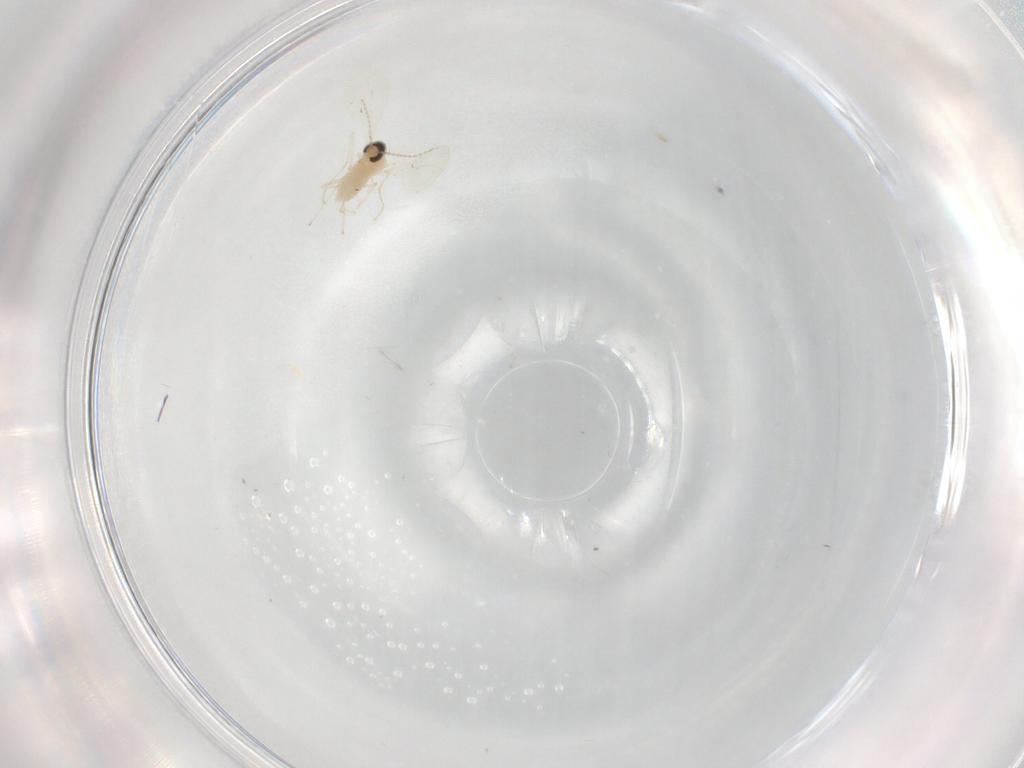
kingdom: Animalia
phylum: Arthropoda
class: Insecta
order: Diptera
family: Cecidomyiidae
